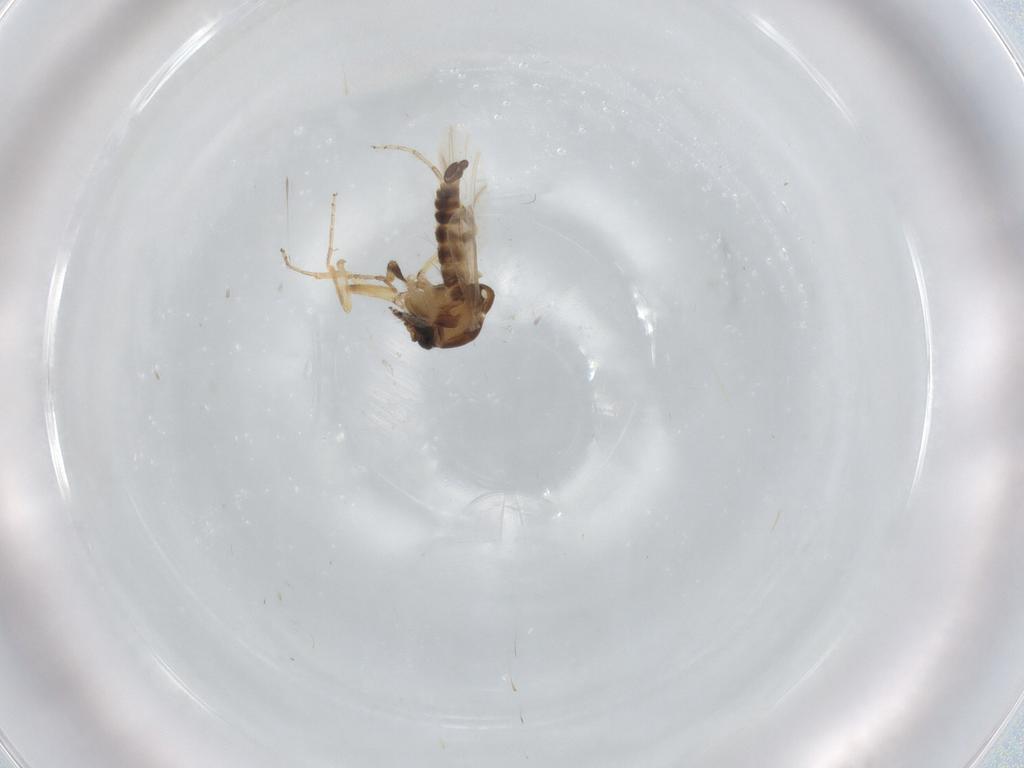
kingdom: Animalia
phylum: Arthropoda
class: Insecta
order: Diptera
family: Ceratopogonidae
